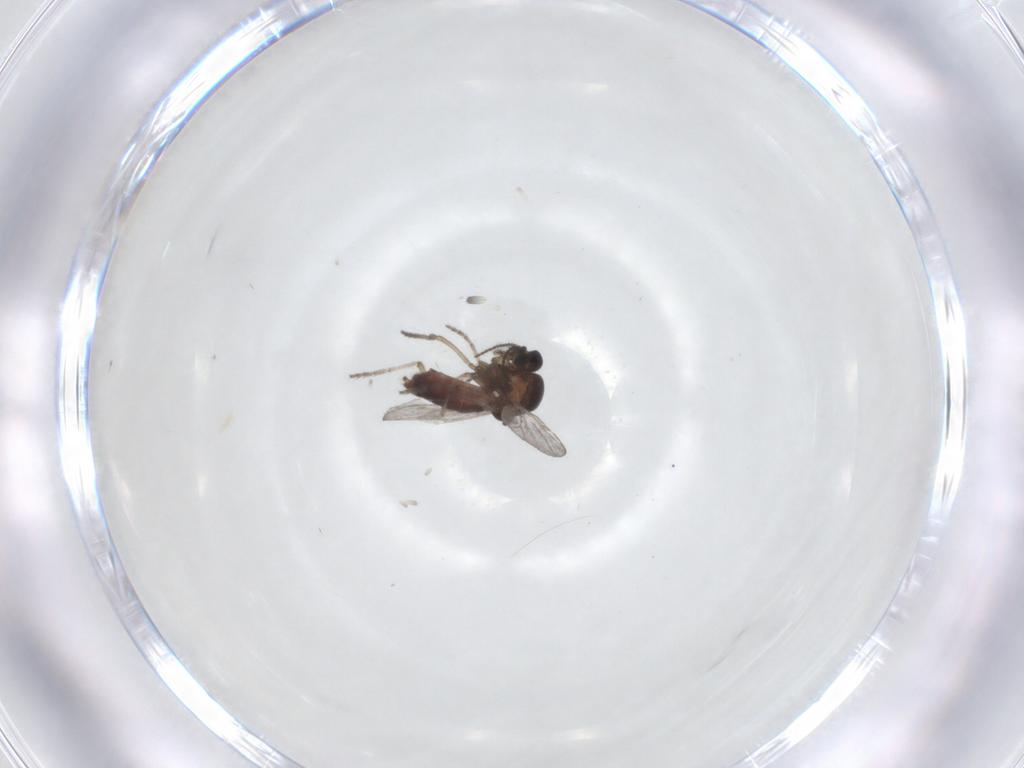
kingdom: Animalia
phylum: Arthropoda
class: Insecta
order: Diptera
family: Ceratopogonidae
